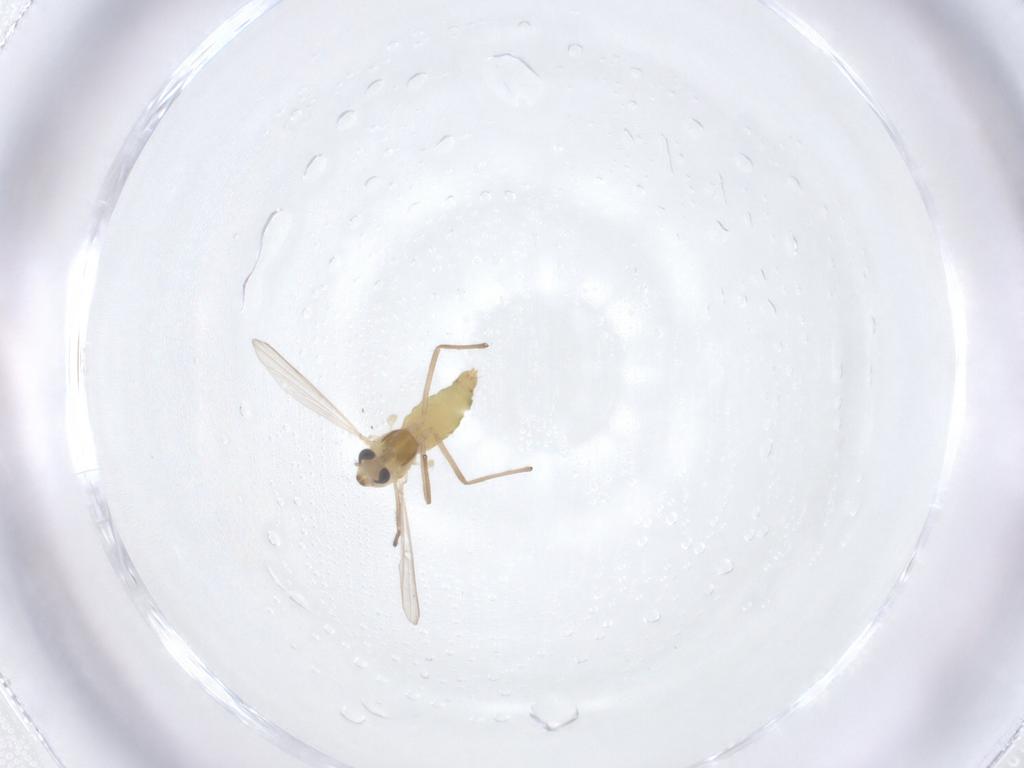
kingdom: Animalia
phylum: Arthropoda
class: Insecta
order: Diptera
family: Chironomidae
